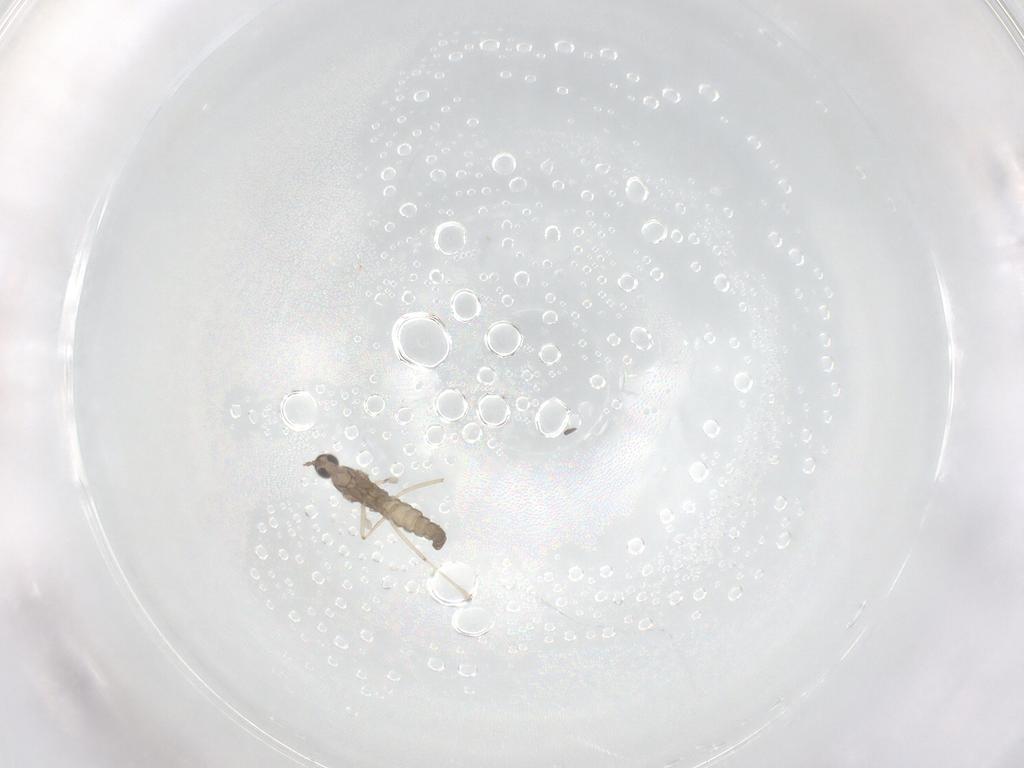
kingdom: Animalia
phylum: Arthropoda
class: Insecta
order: Diptera
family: Cecidomyiidae
